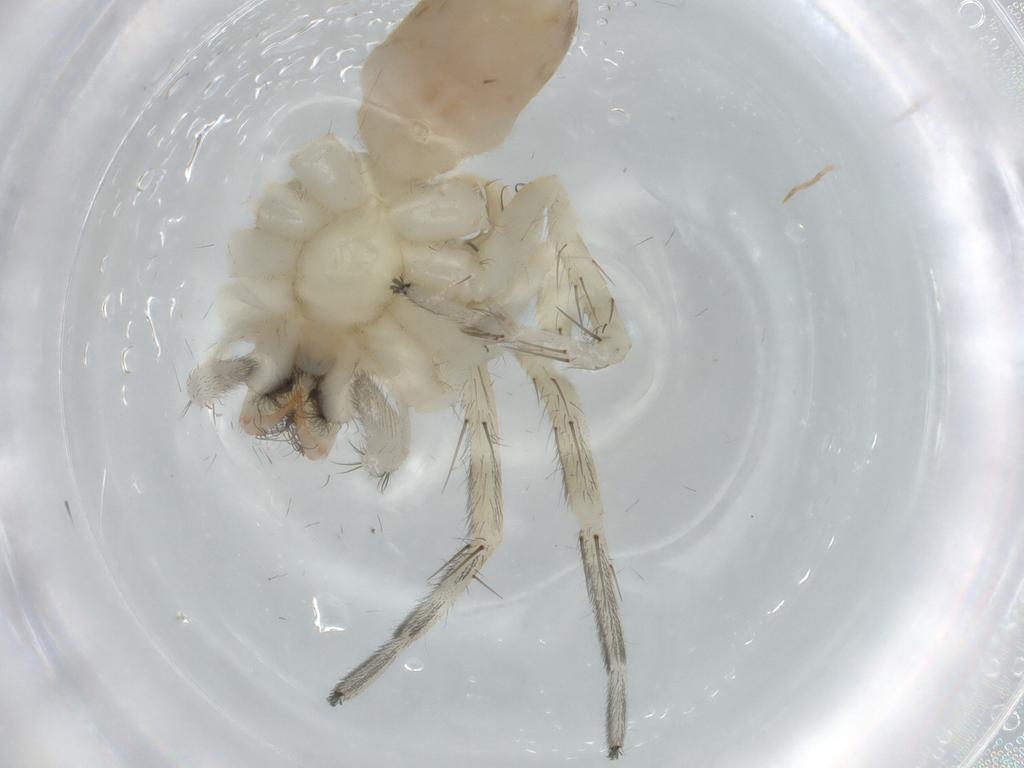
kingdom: Animalia
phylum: Arthropoda
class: Arachnida
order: Araneae
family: Anyphaenidae
